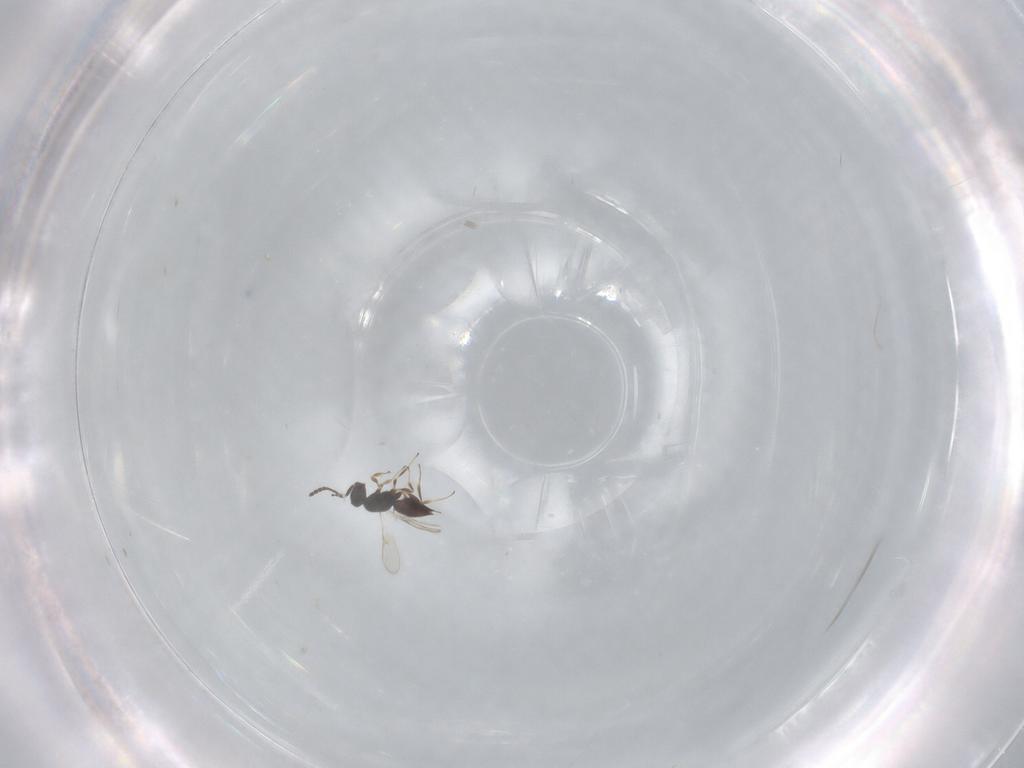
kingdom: Animalia
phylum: Arthropoda
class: Insecta
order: Hymenoptera
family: Scelionidae
